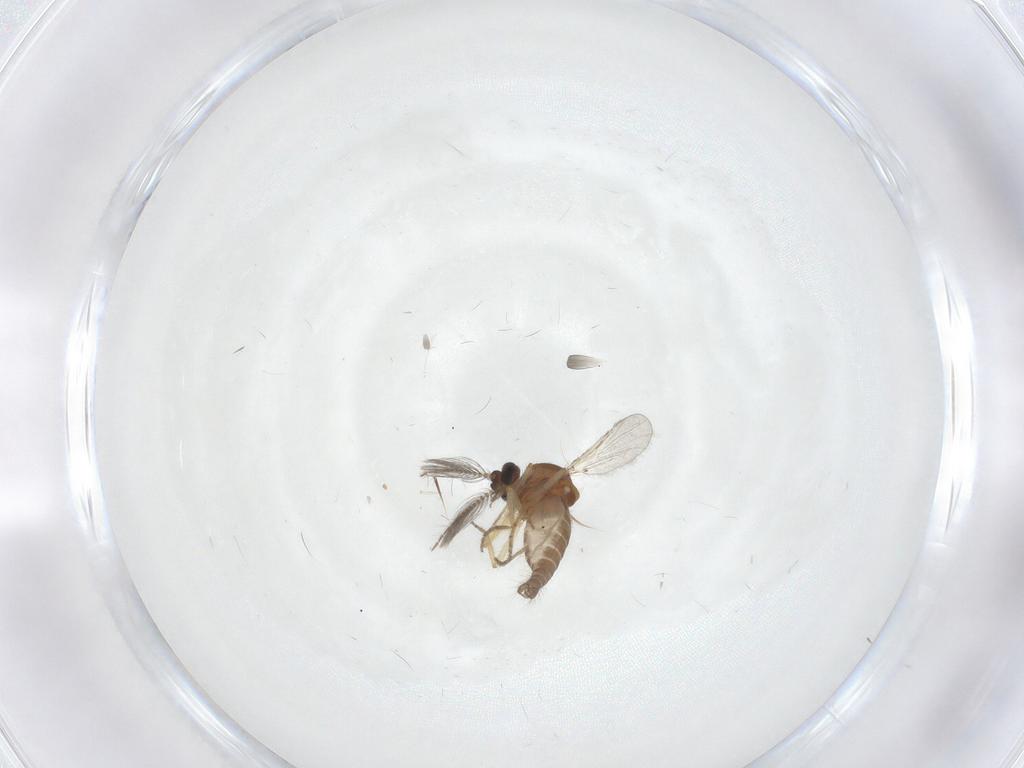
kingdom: Animalia
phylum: Arthropoda
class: Insecta
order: Diptera
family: Ceratopogonidae
